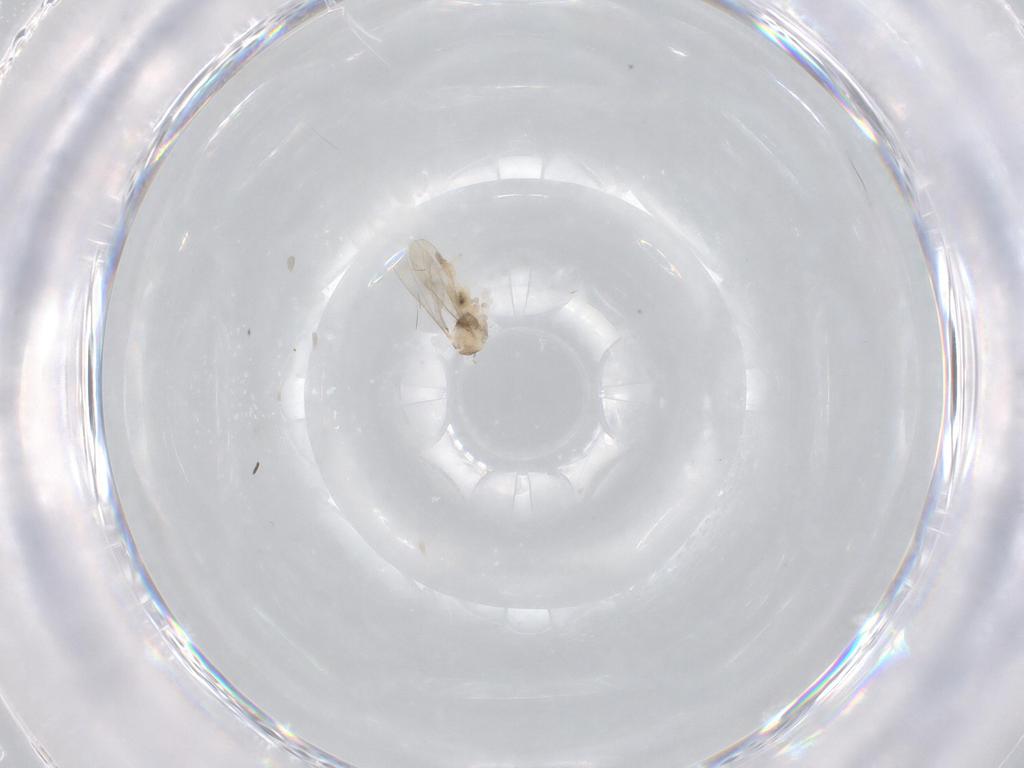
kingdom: Animalia
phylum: Arthropoda
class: Insecta
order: Diptera
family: Cecidomyiidae
